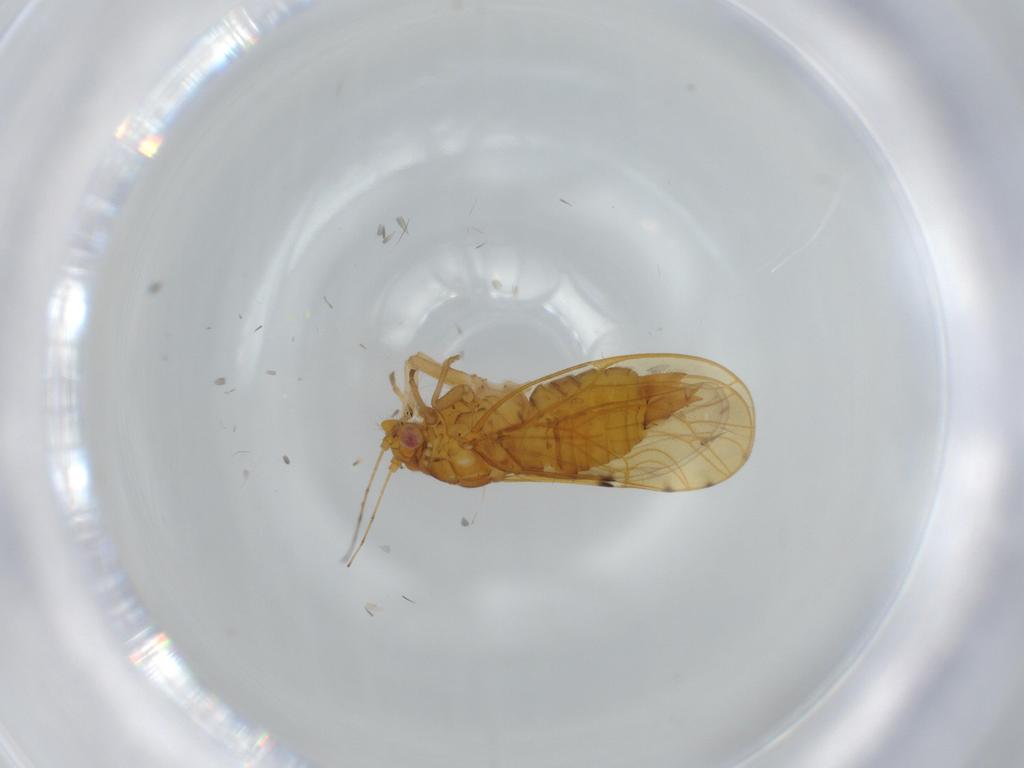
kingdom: Animalia
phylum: Arthropoda
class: Insecta
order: Hemiptera
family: Psylloidea_incertae_sedis
